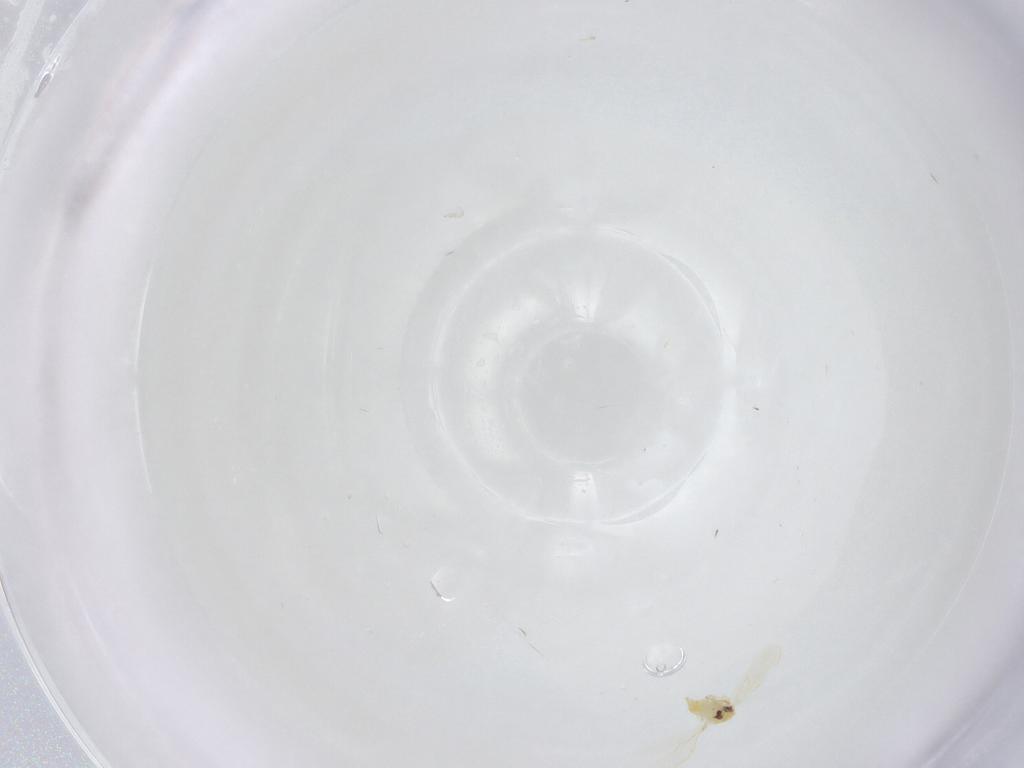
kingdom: Animalia
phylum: Arthropoda
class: Insecta
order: Hemiptera
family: Aleyrodidae
